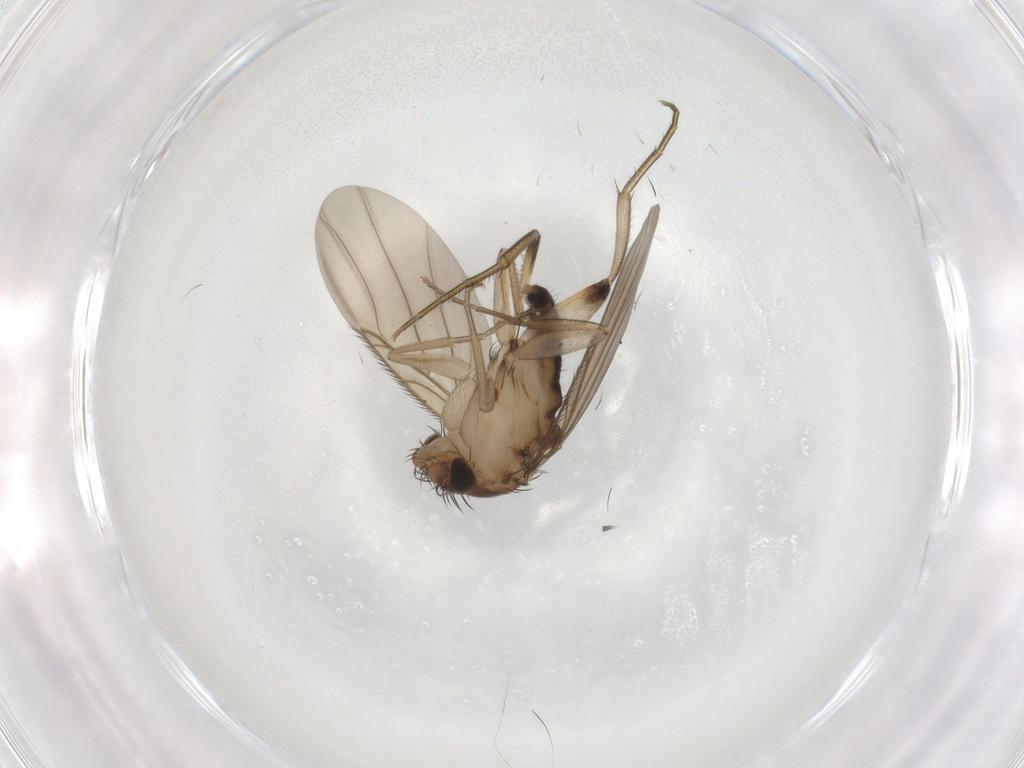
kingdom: Animalia
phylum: Arthropoda
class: Insecta
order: Diptera
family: Phoridae
